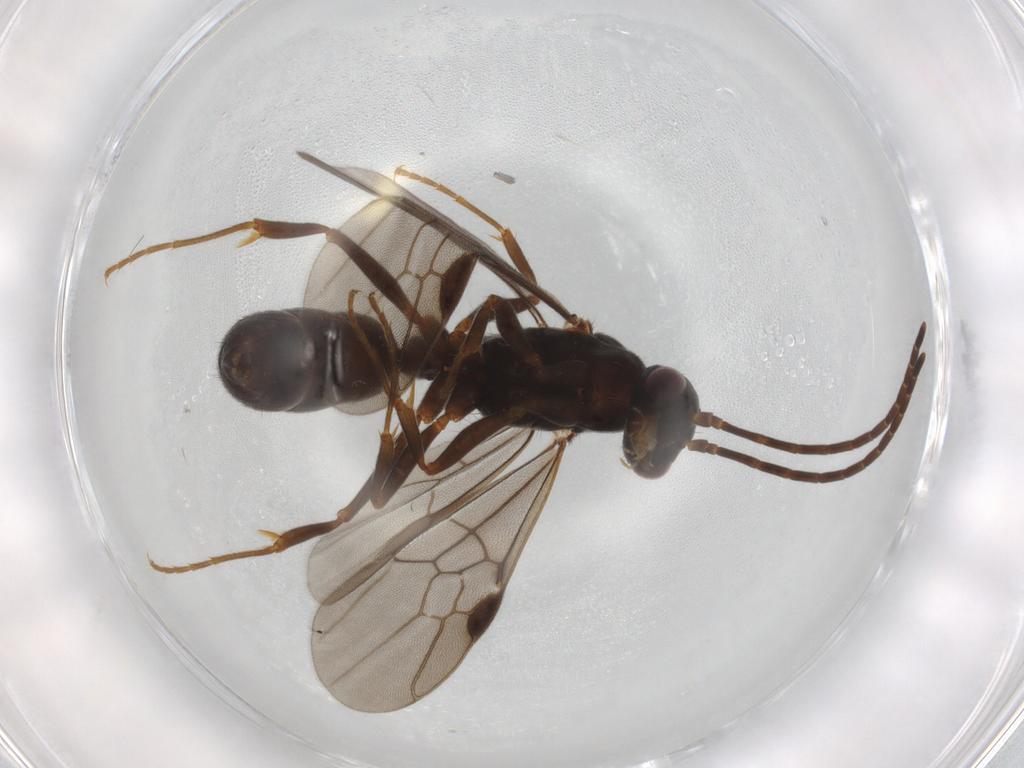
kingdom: Animalia
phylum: Arthropoda
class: Insecta
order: Hymenoptera
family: Formicidae
